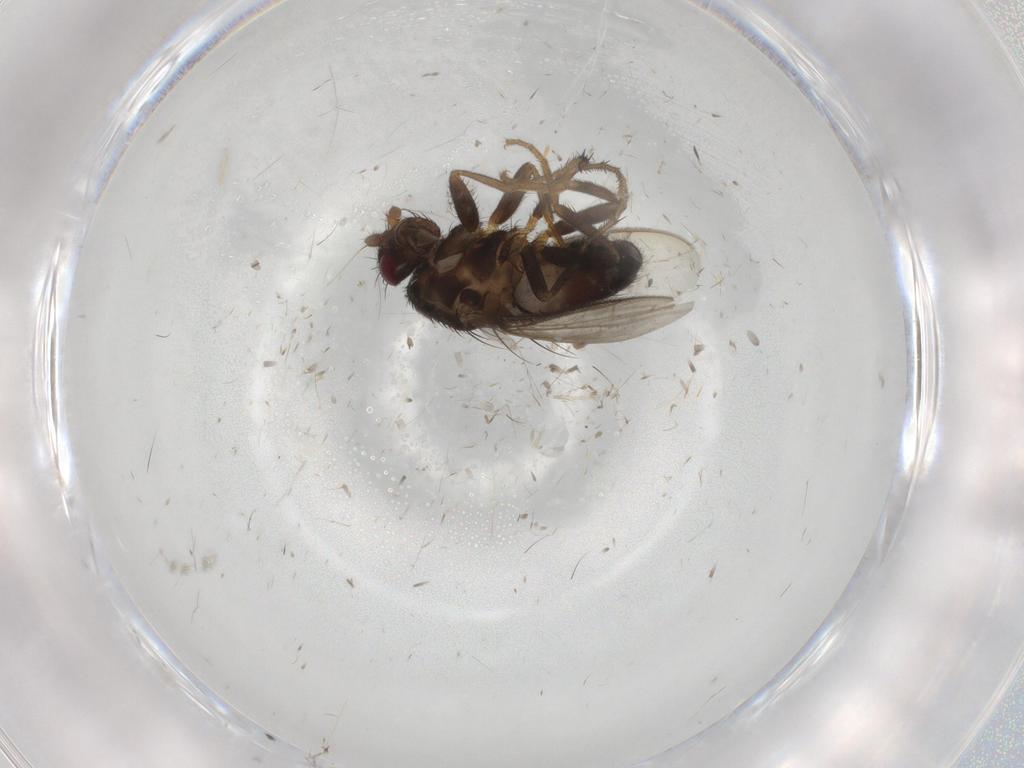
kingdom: Animalia
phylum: Arthropoda
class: Insecta
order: Diptera
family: Sphaeroceridae
